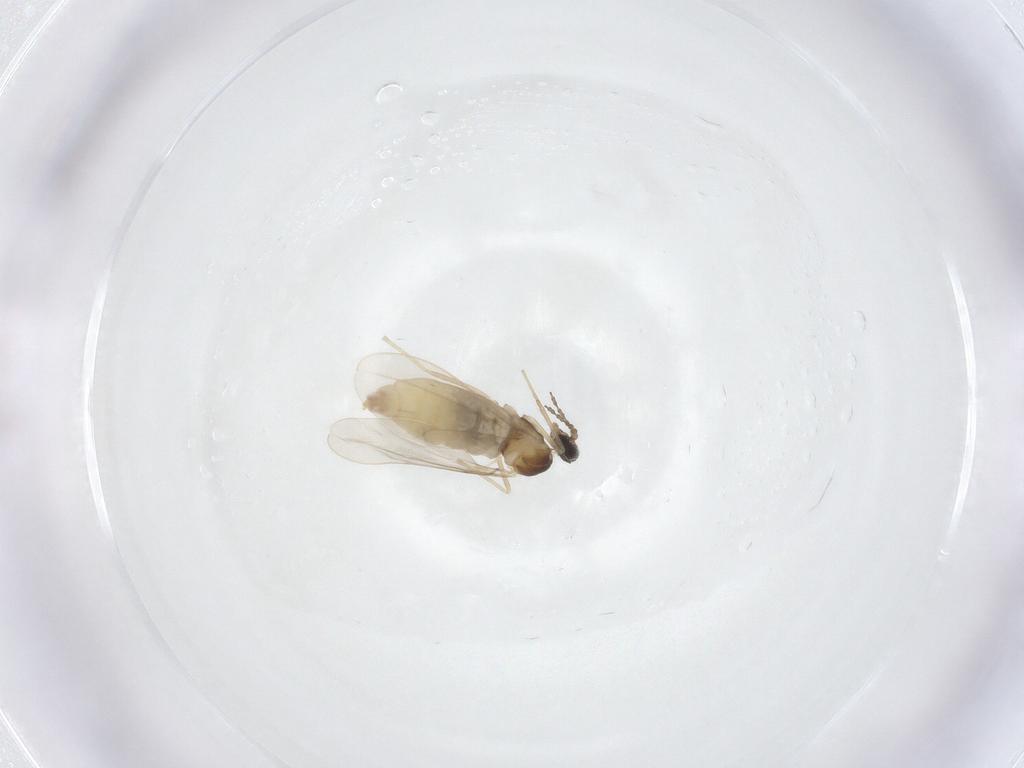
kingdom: Animalia
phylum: Arthropoda
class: Insecta
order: Diptera
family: Cecidomyiidae
